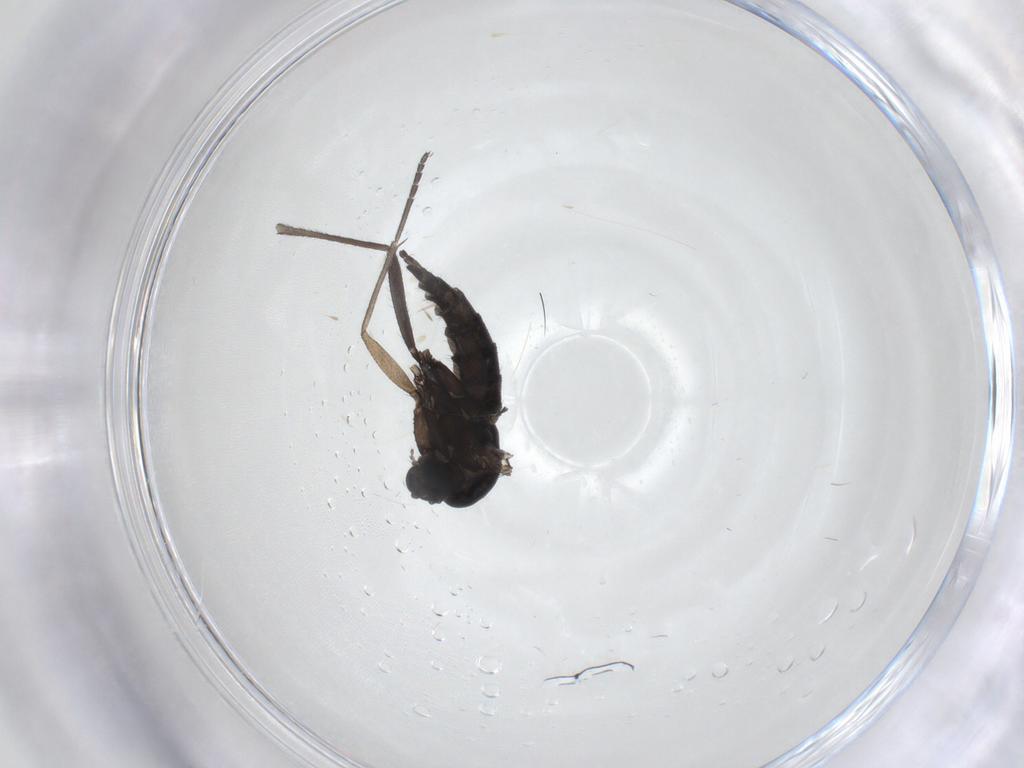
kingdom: Animalia
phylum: Arthropoda
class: Insecta
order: Diptera
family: Sciaridae
